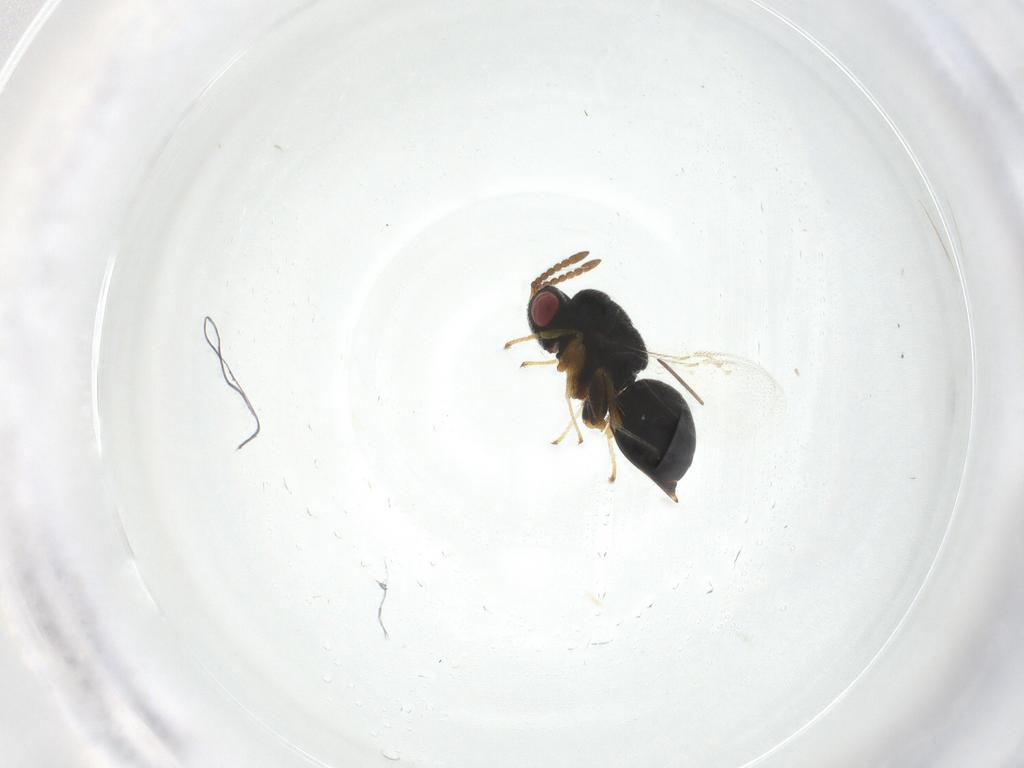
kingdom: Animalia
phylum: Arthropoda
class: Insecta
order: Hymenoptera
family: Eurytomidae
